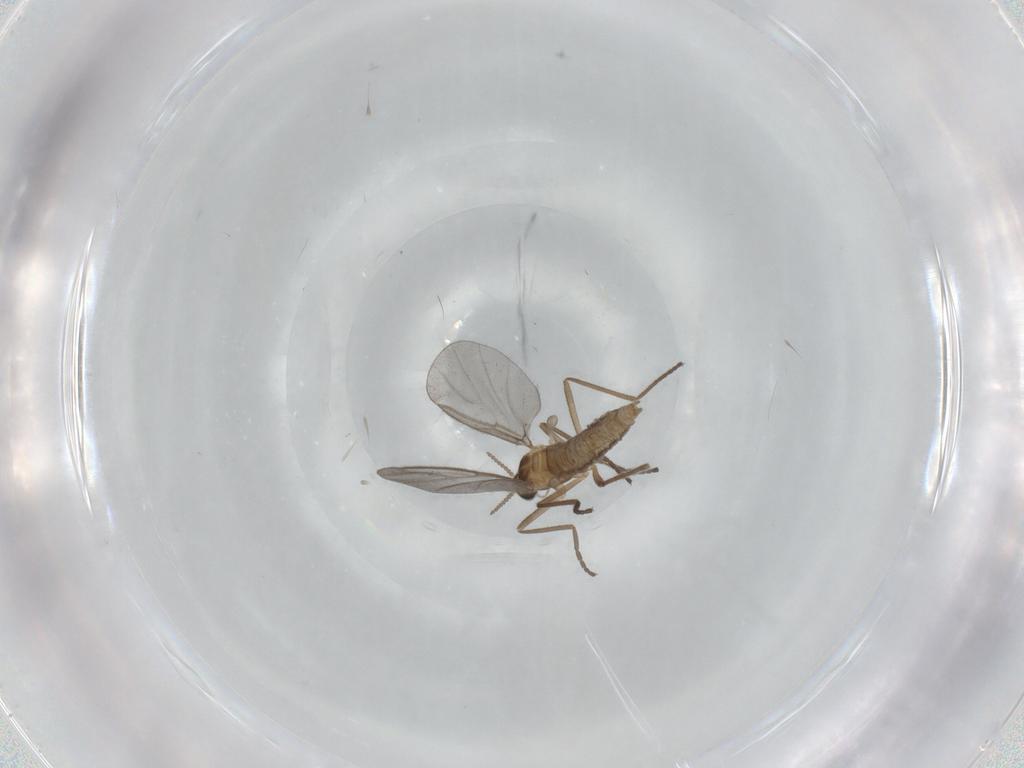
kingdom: Animalia
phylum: Arthropoda
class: Insecta
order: Diptera
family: Cecidomyiidae
